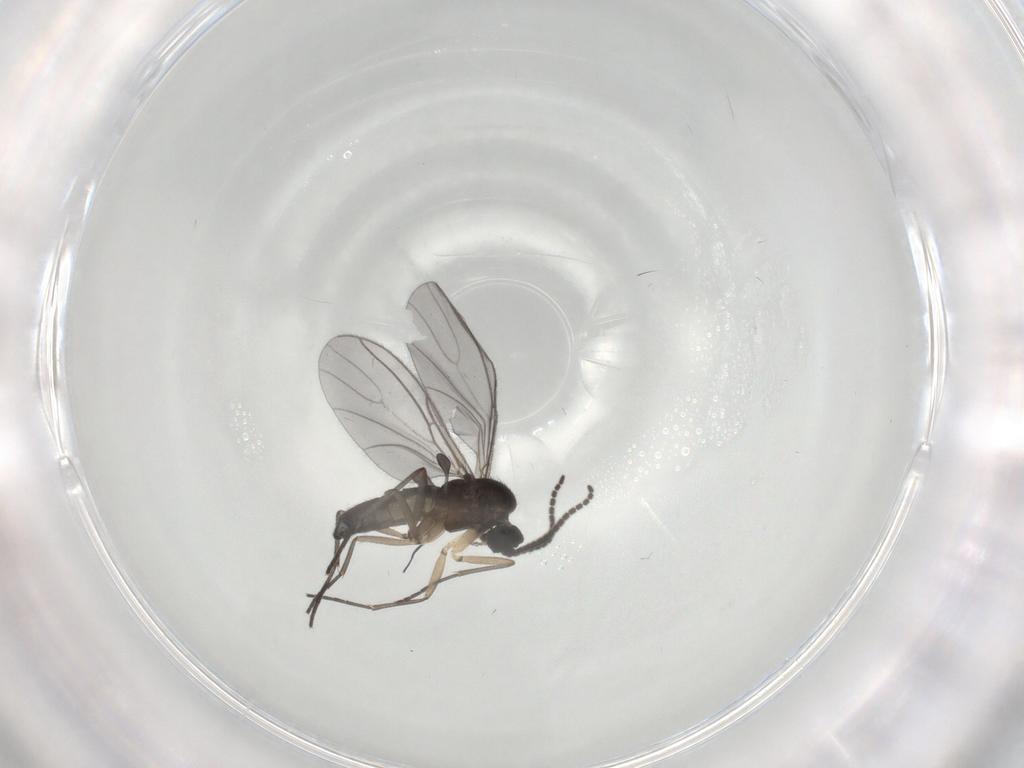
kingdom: Animalia
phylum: Arthropoda
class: Insecta
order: Diptera
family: Sciaridae
